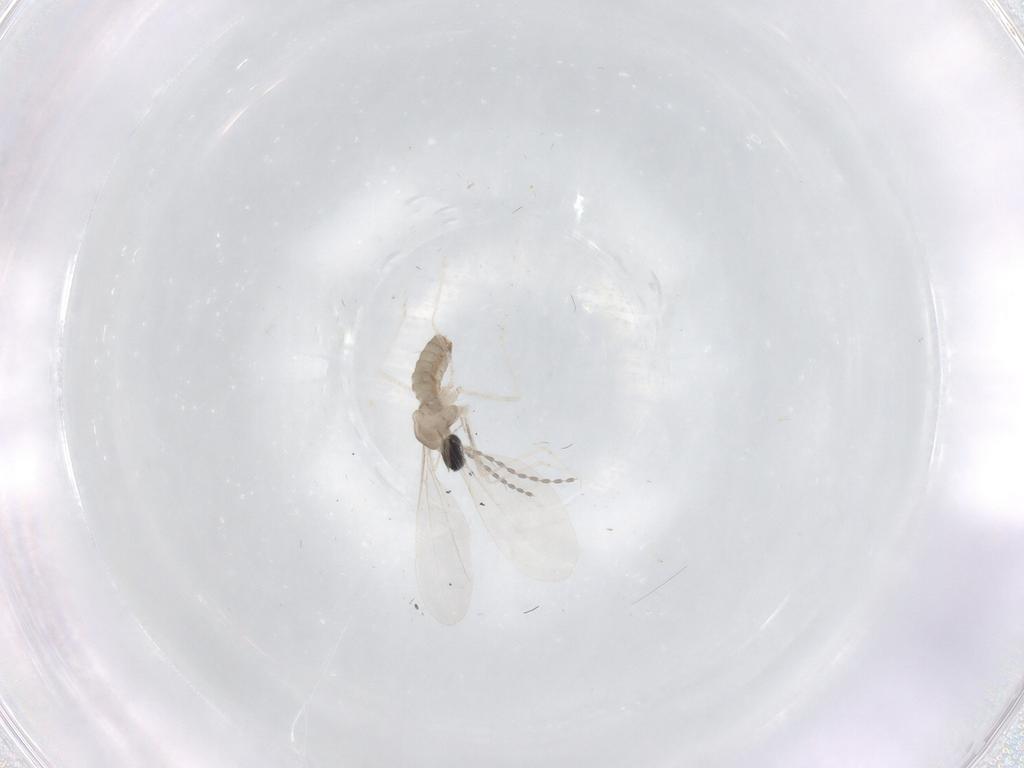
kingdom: Animalia
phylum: Arthropoda
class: Insecta
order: Diptera
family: Cecidomyiidae
